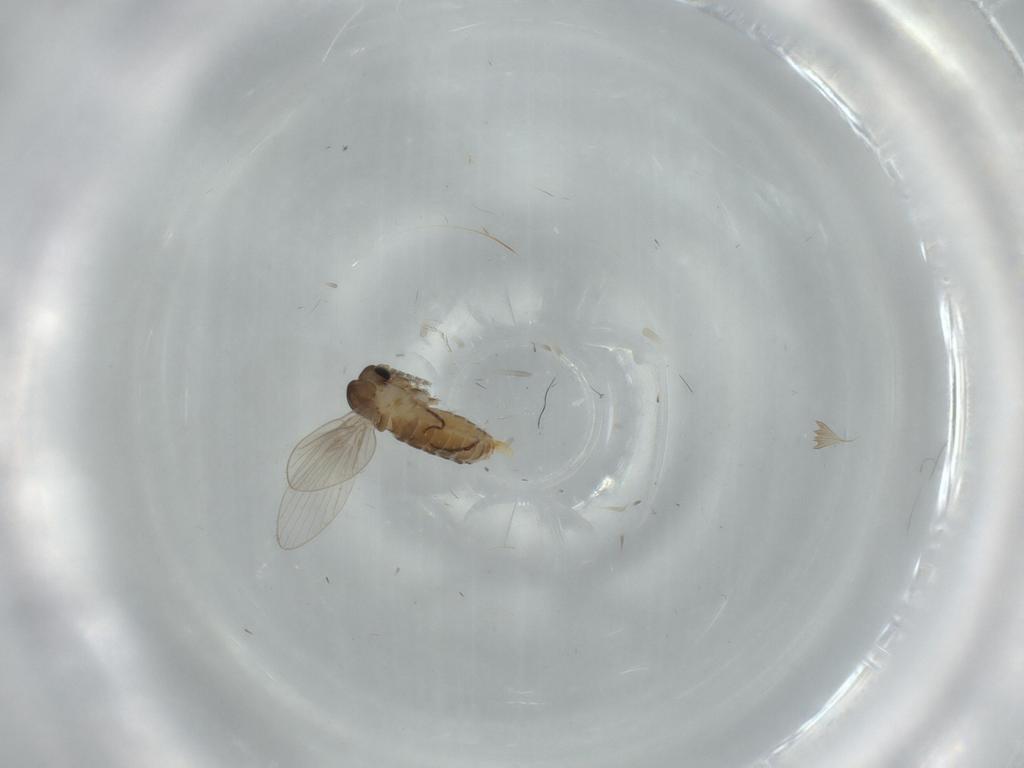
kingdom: Animalia
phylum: Arthropoda
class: Insecta
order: Diptera
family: Psychodidae
